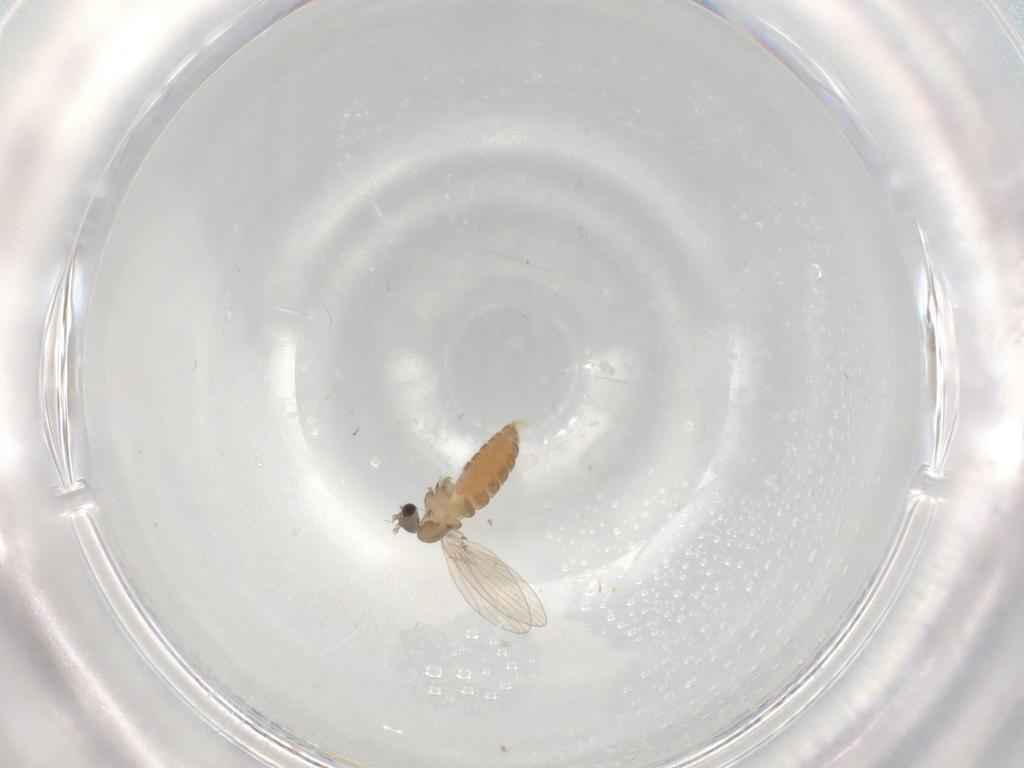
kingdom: Animalia
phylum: Arthropoda
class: Insecta
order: Diptera
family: Psychodidae
